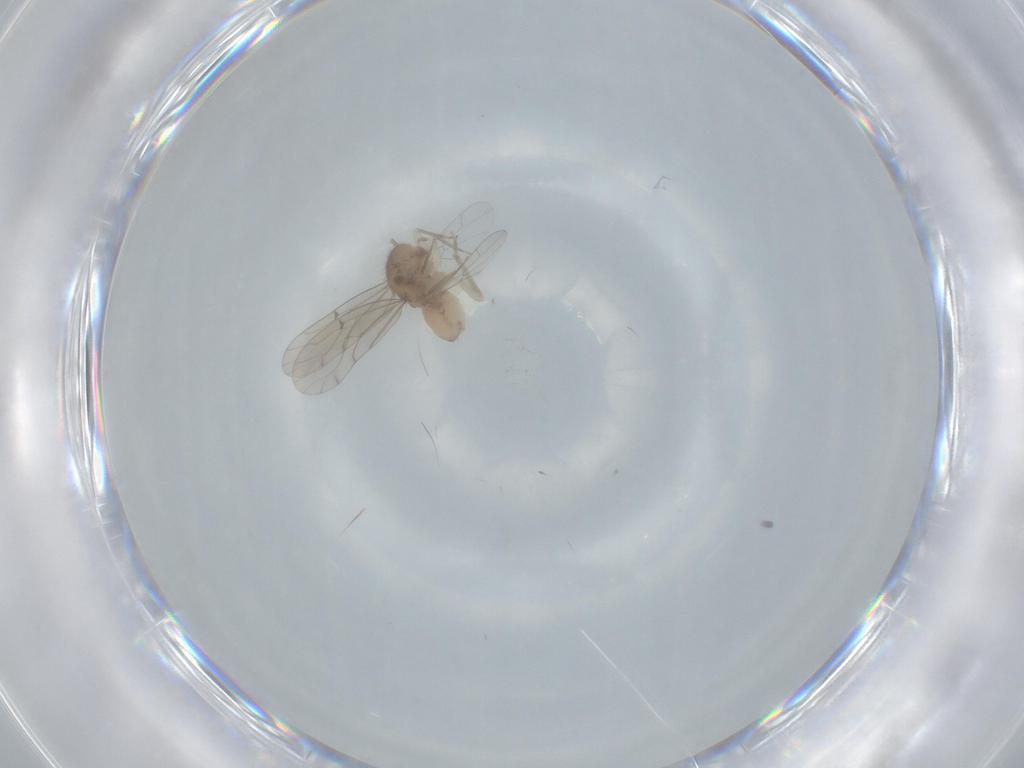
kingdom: Animalia
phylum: Arthropoda
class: Insecta
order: Psocodea
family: Ectopsocidae
